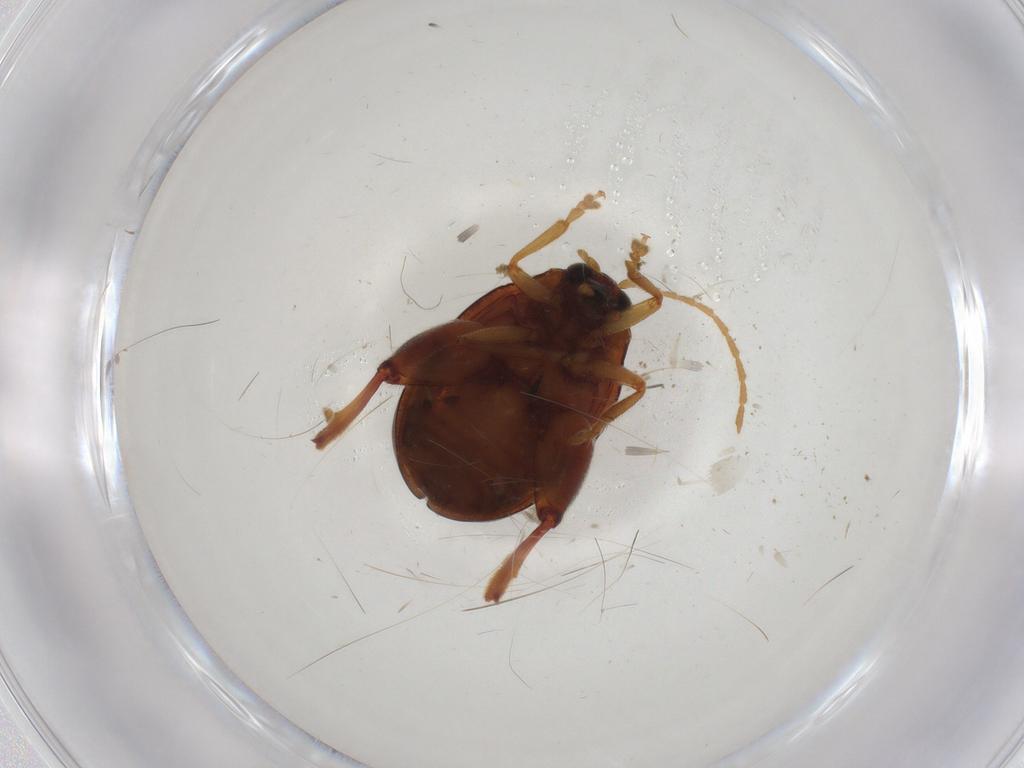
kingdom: Animalia
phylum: Arthropoda
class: Insecta
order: Coleoptera
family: Chrysomelidae
